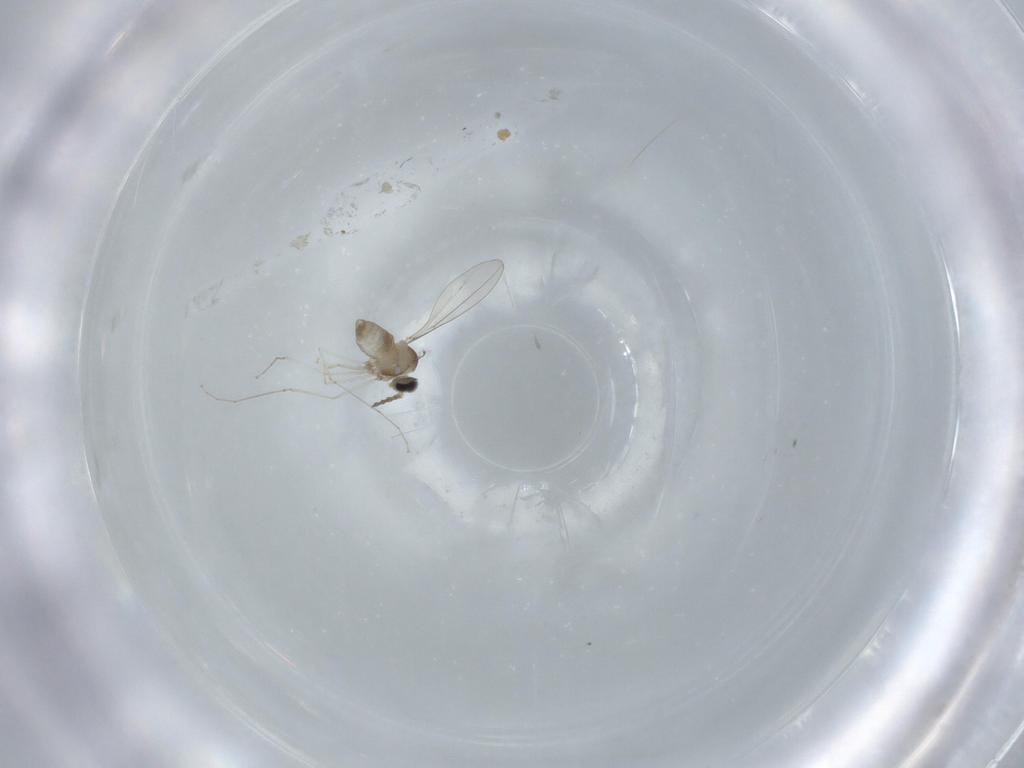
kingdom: Animalia
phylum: Arthropoda
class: Insecta
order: Diptera
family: Cecidomyiidae
